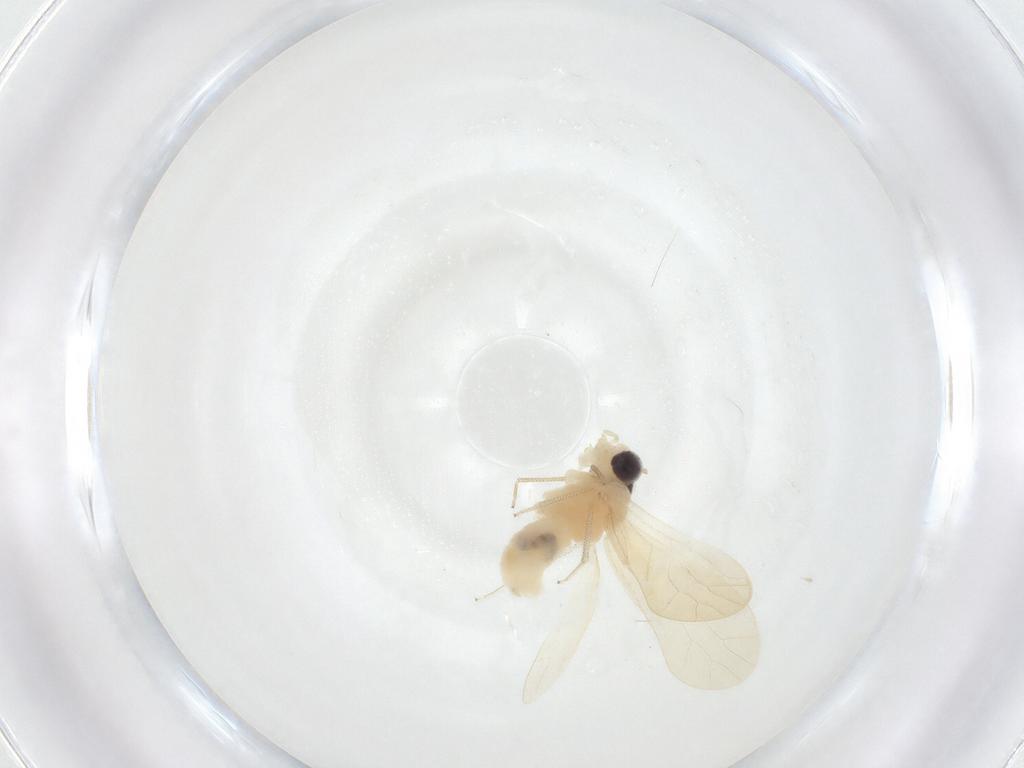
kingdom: Animalia
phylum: Arthropoda
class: Insecta
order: Psocodea
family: Caeciliusidae
